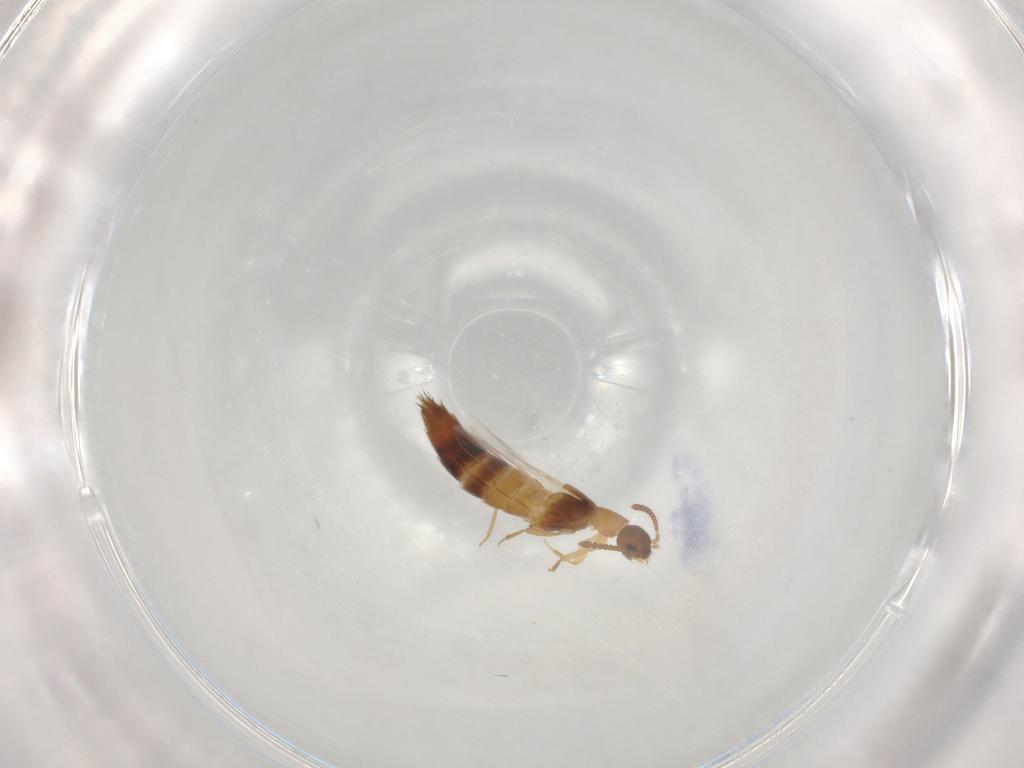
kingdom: Animalia
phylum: Arthropoda
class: Insecta
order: Coleoptera
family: Staphylinidae
